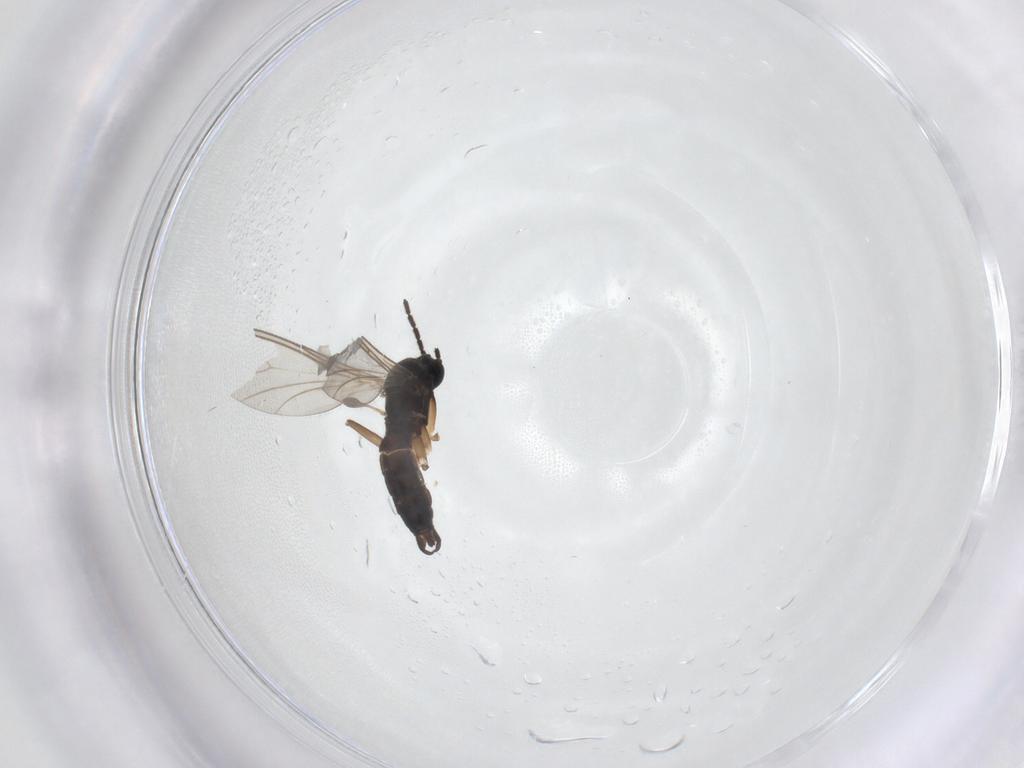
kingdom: Animalia
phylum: Arthropoda
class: Insecta
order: Diptera
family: Sciaridae
